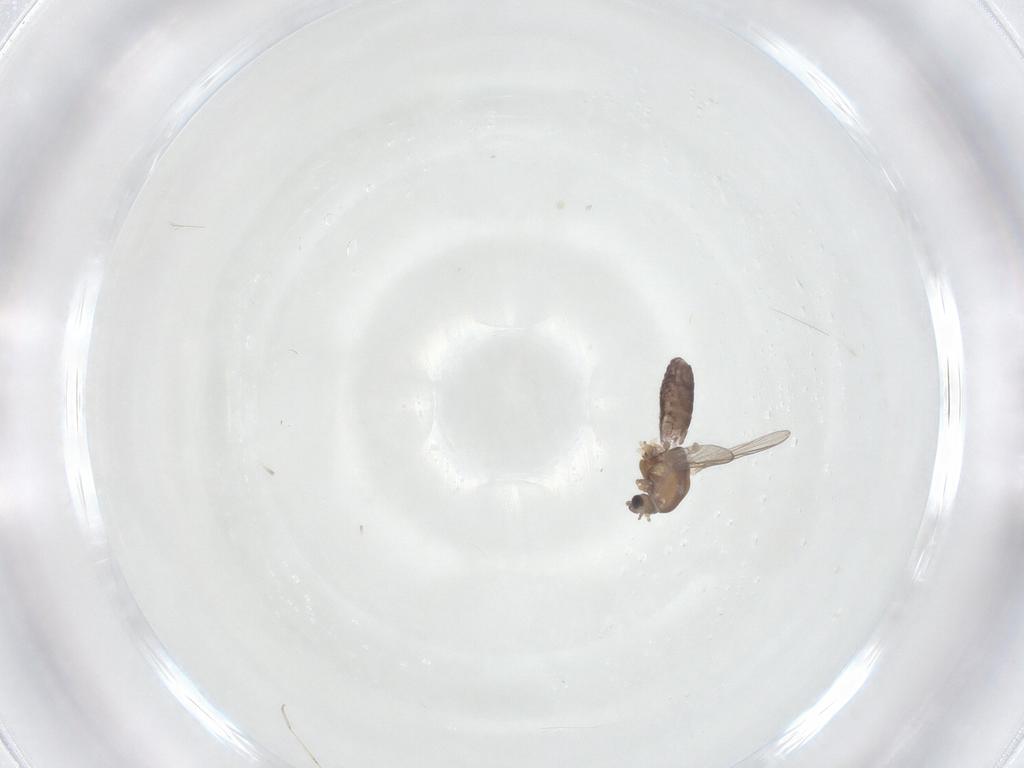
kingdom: Animalia
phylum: Arthropoda
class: Insecta
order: Diptera
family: Chironomidae
